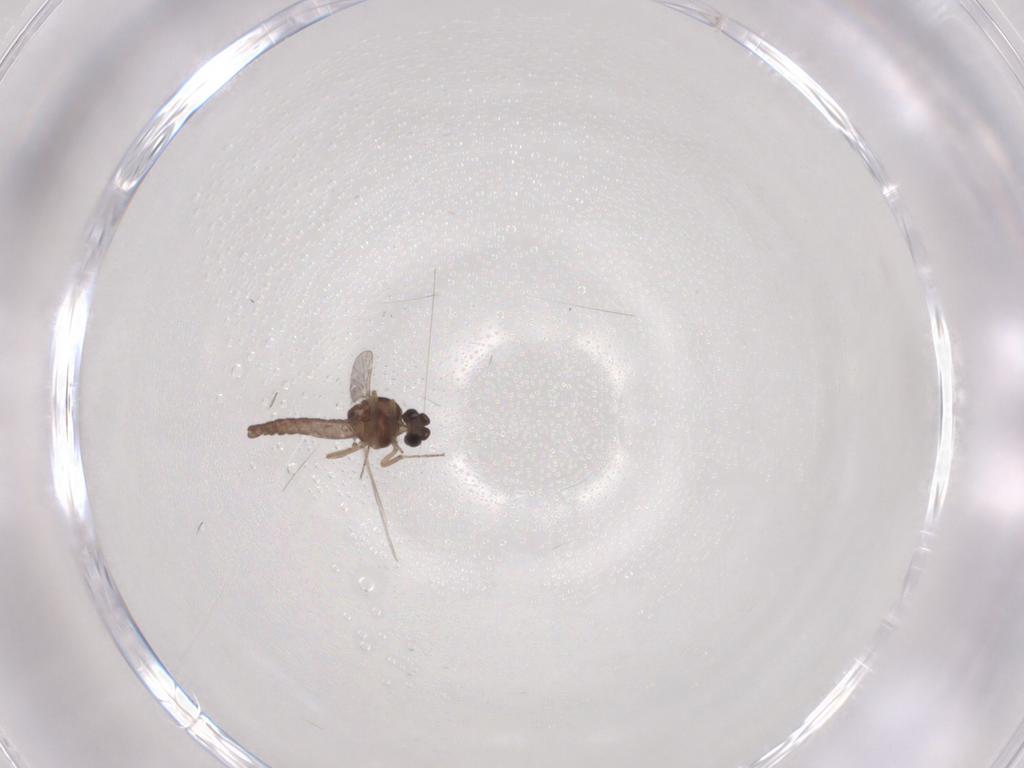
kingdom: Animalia
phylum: Arthropoda
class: Insecta
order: Diptera
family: Ceratopogonidae
